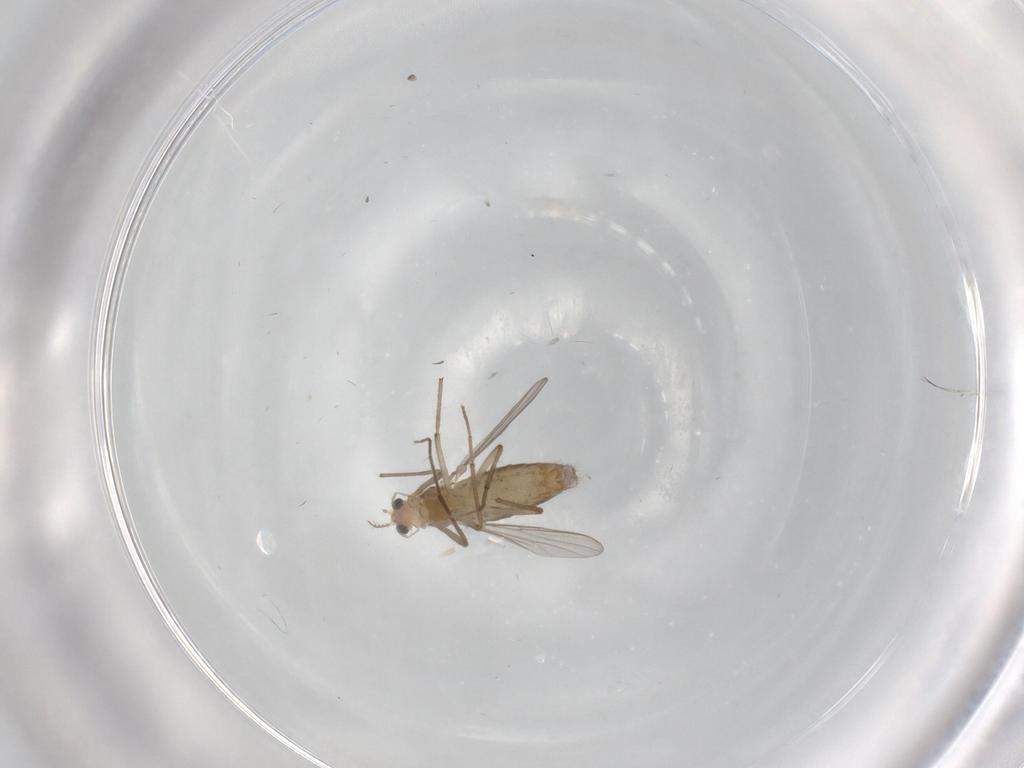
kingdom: Animalia
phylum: Arthropoda
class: Insecta
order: Diptera
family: Chironomidae
